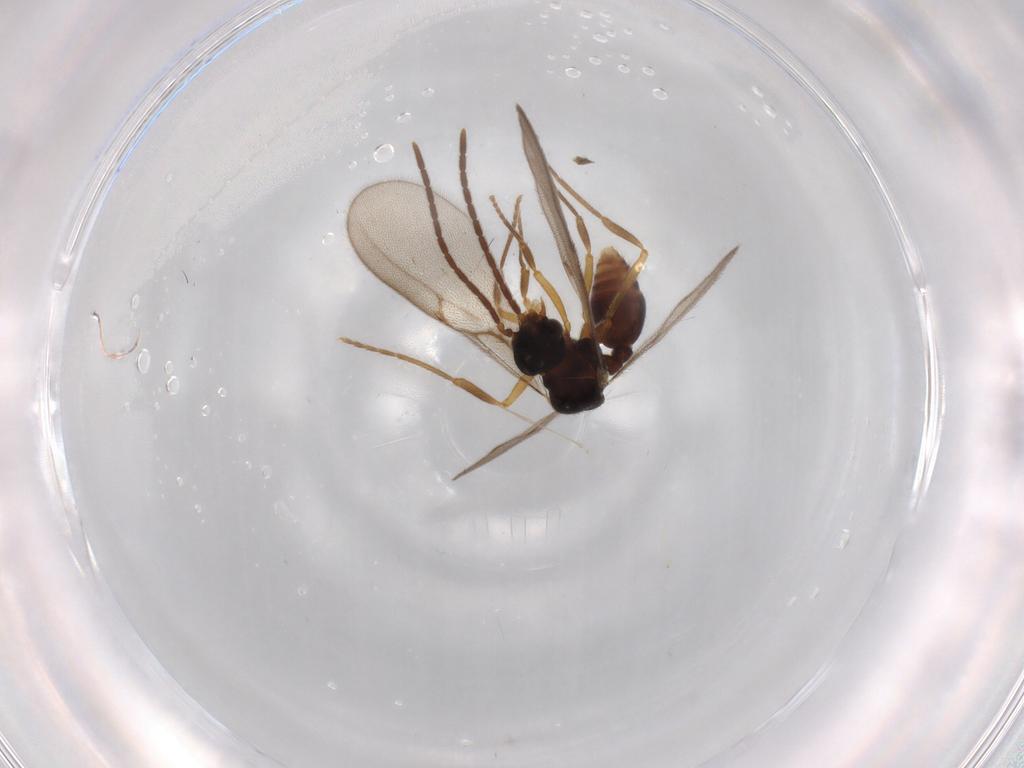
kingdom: Animalia
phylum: Arthropoda
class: Insecta
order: Hymenoptera
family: Formicidae
